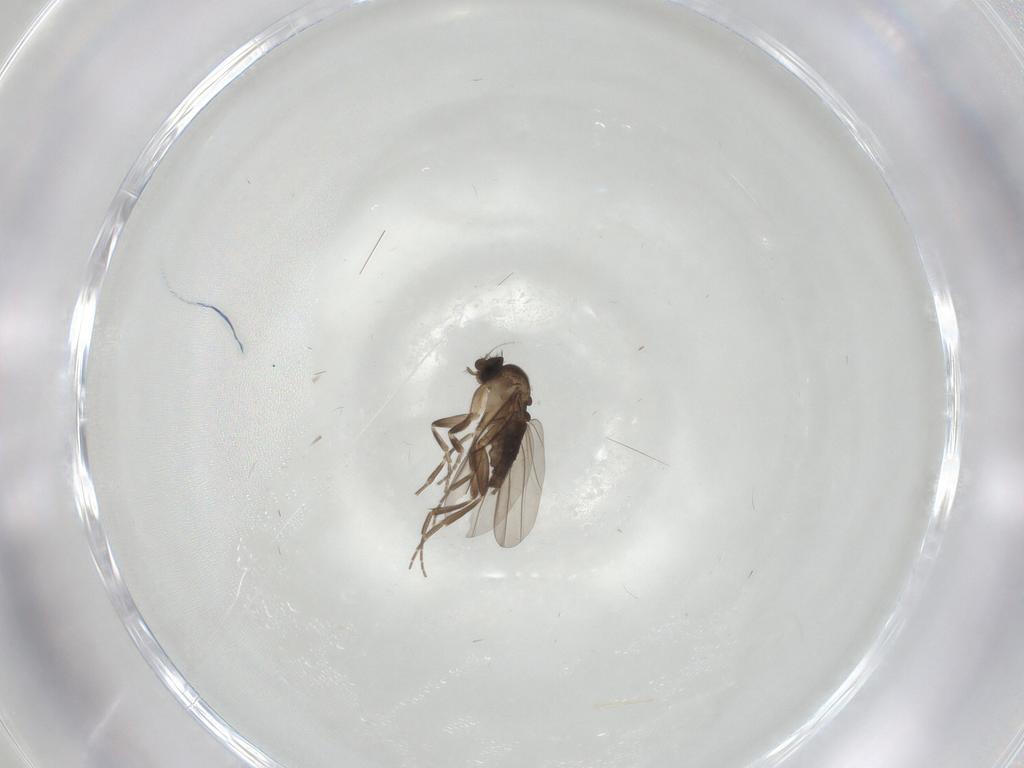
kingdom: Animalia
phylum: Arthropoda
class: Insecta
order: Diptera
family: Phoridae
